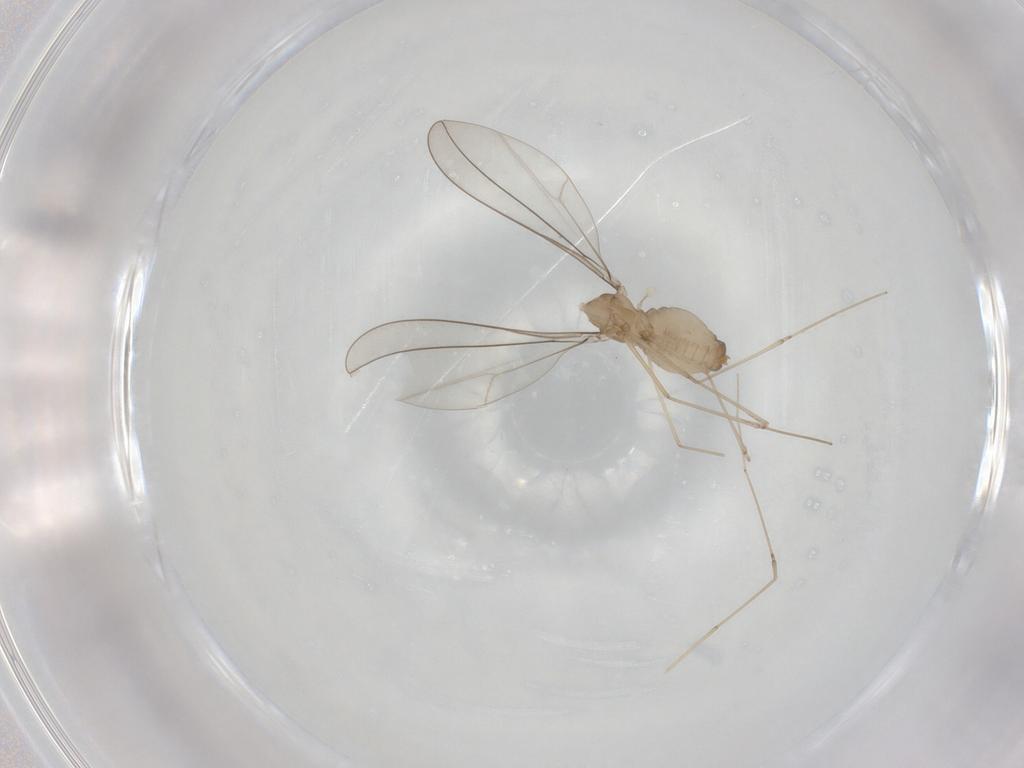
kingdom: Animalia
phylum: Arthropoda
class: Insecta
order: Diptera
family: Cecidomyiidae
